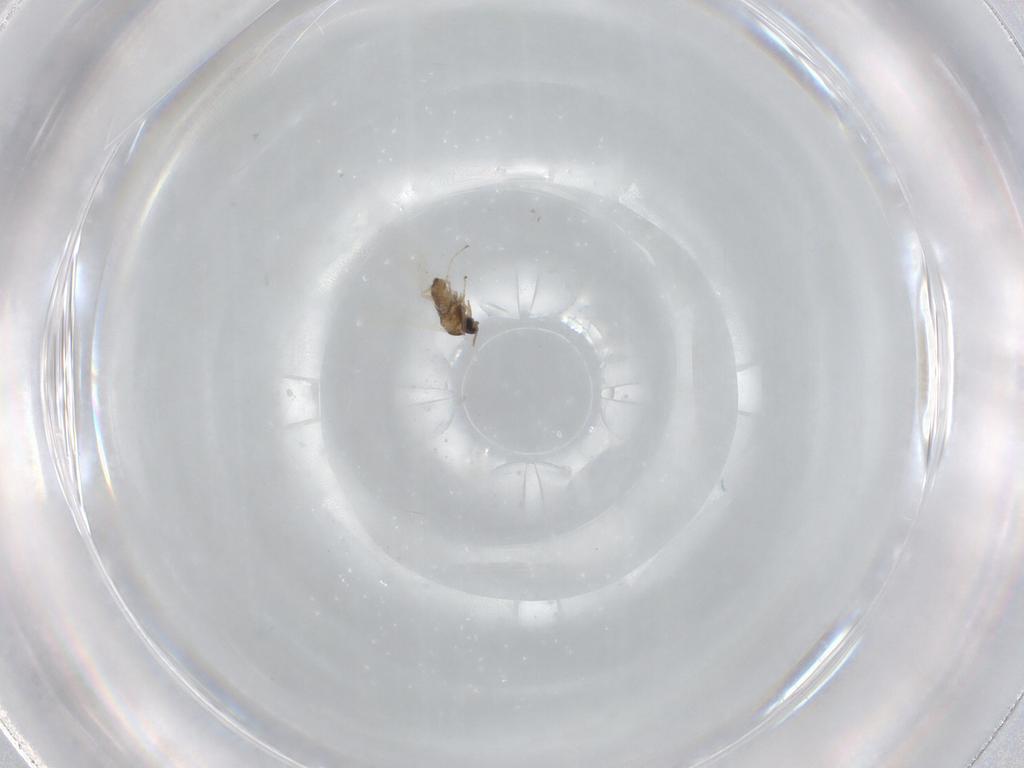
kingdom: Animalia
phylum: Arthropoda
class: Insecta
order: Diptera
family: Cecidomyiidae
